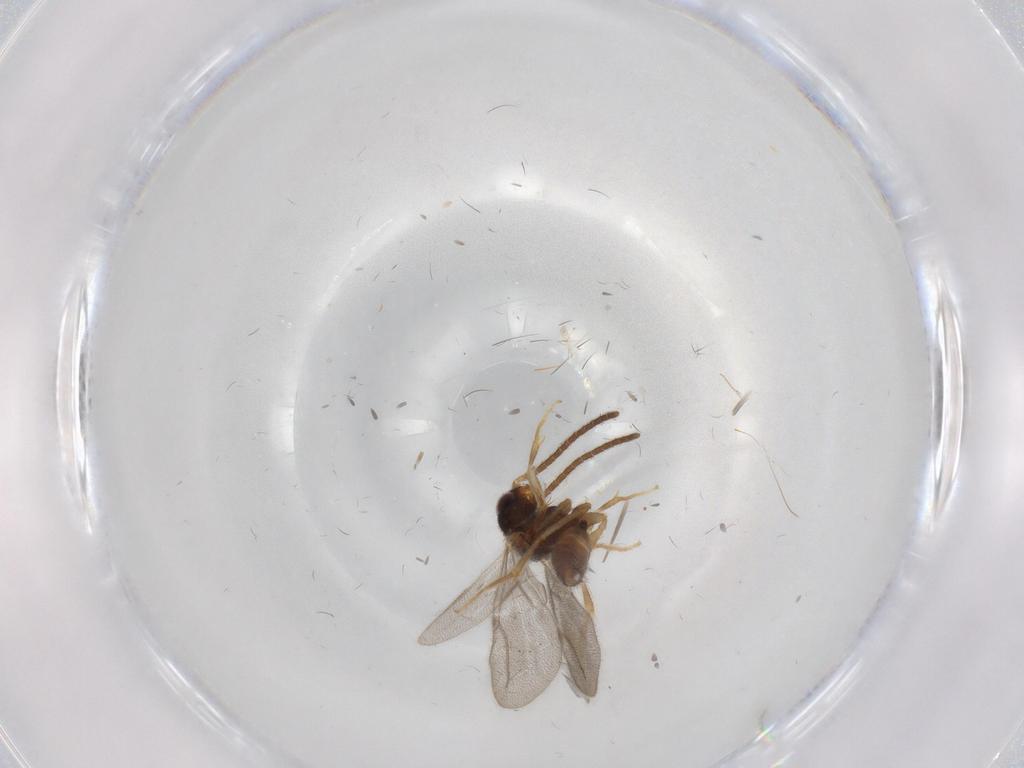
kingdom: Animalia
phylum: Arthropoda
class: Insecta
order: Hymenoptera
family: Bethylidae
